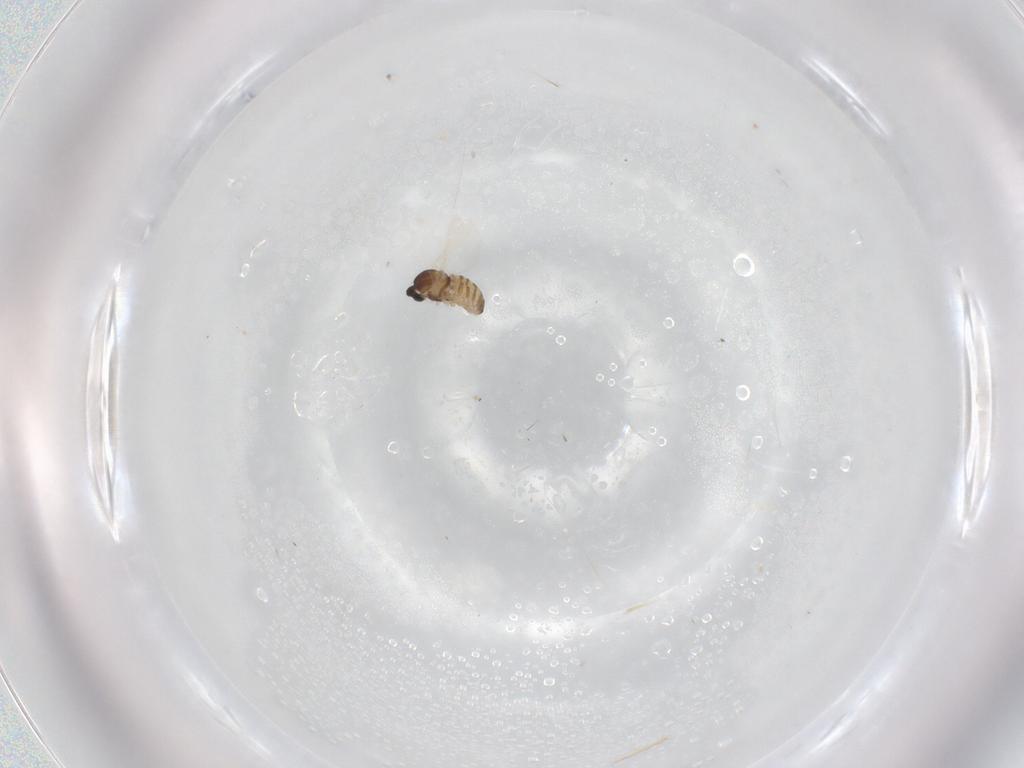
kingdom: Animalia
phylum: Arthropoda
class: Insecta
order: Diptera
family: Cecidomyiidae
